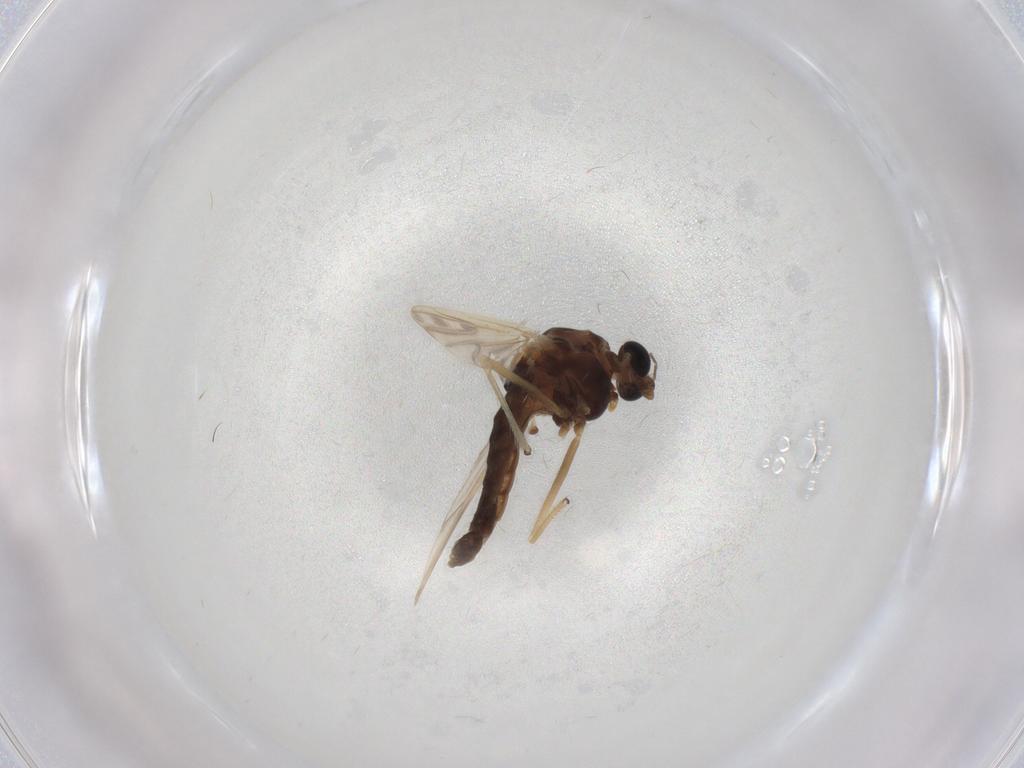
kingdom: Animalia
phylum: Arthropoda
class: Insecta
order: Diptera
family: Chironomidae
